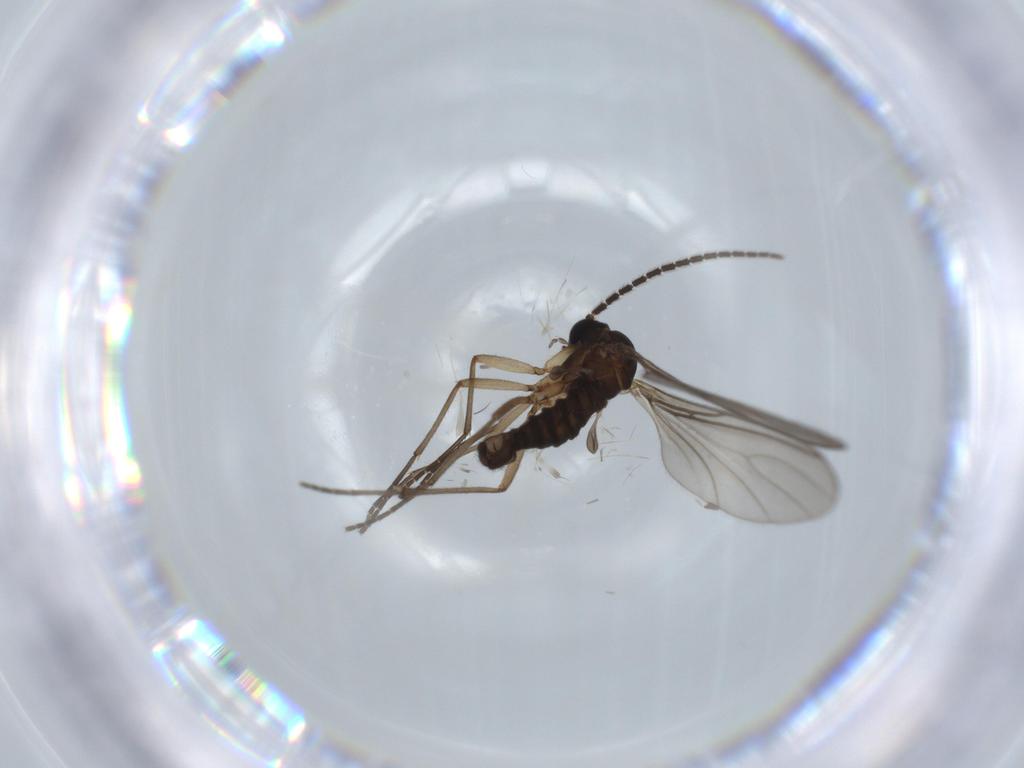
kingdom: Animalia
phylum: Arthropoda
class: Insecta
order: Diptera
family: Sciaridae
